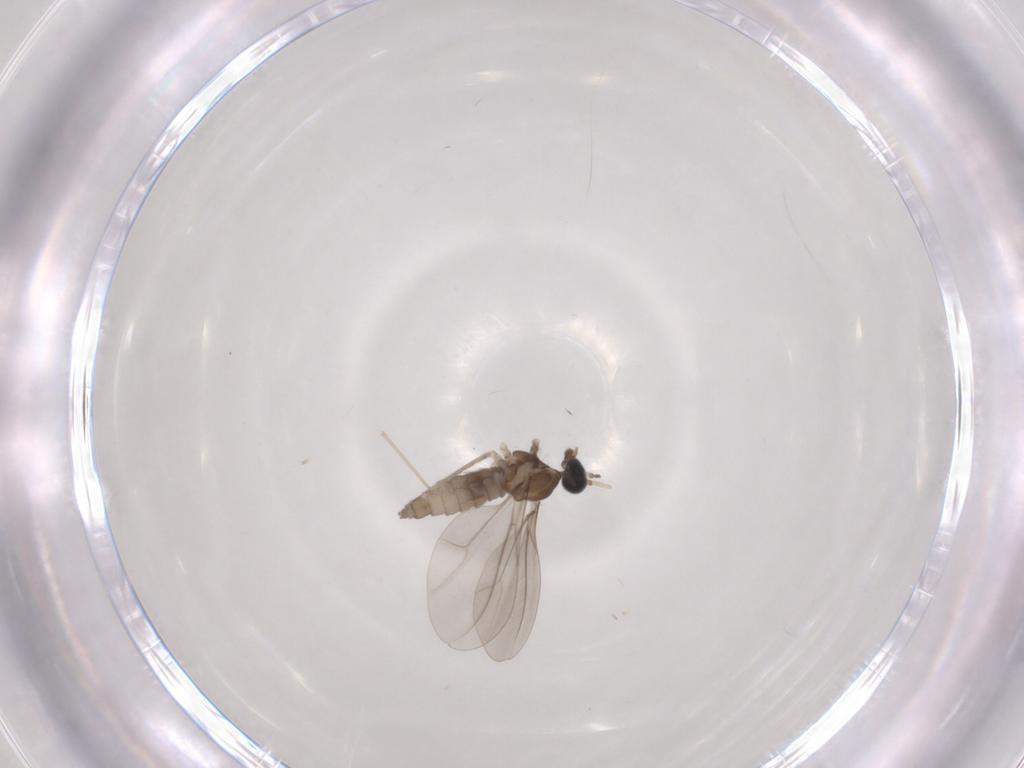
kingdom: Animalia
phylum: Arthropoda
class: Insecta
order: Diptera
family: Cecidomyiidae
